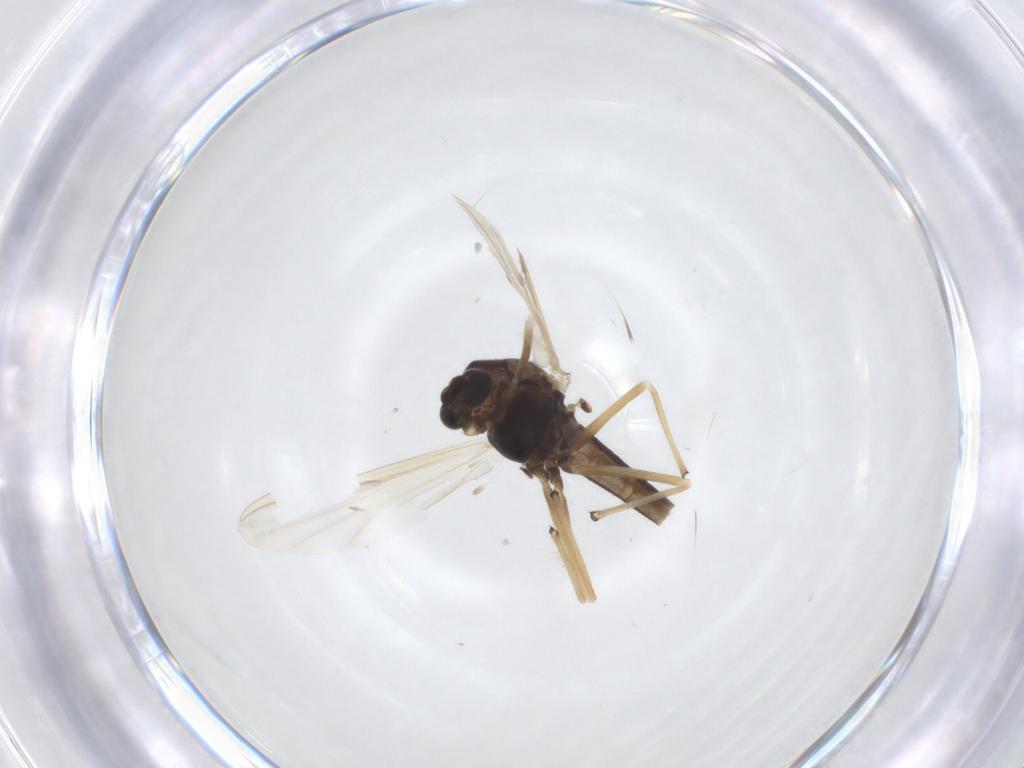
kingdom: Animalia
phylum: Arthropoda
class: Insecta
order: Diptera
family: Chironomidae
